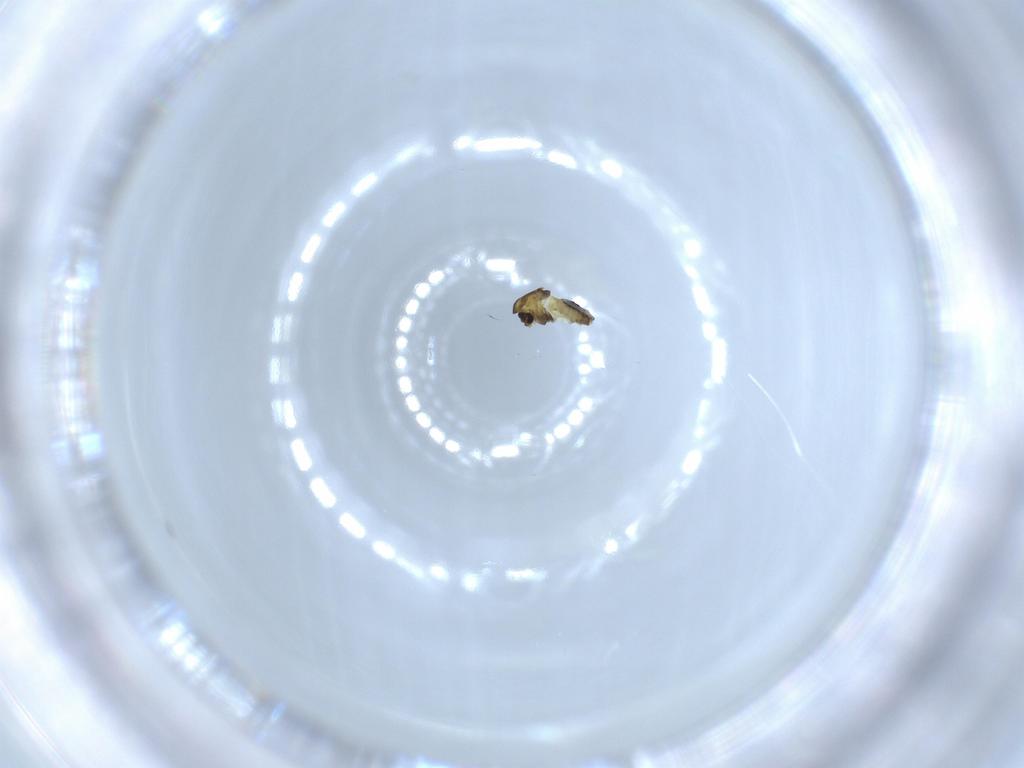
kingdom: Animalia
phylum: Arthropoda
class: Insecta
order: Diptera
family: Chironomidae
